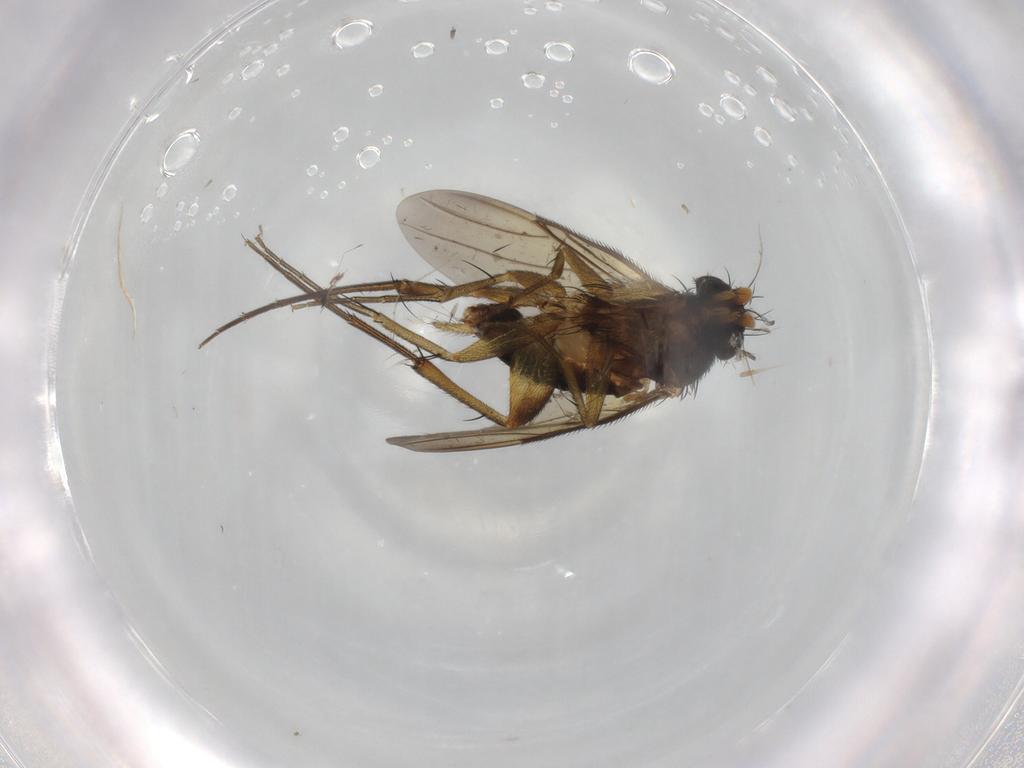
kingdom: Animalia
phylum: Arthropoda
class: Insecta
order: Diptera
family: Phoridae
